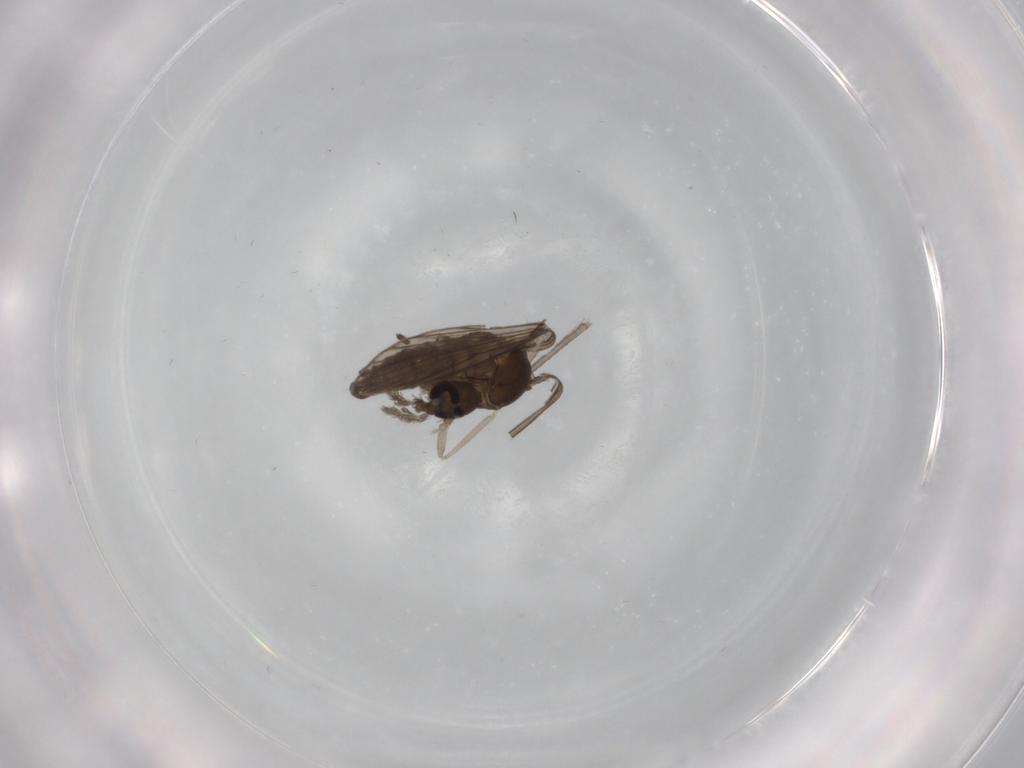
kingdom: Animalia
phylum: Arthropoda
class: Insecta
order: Diptera
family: Psychodidae
